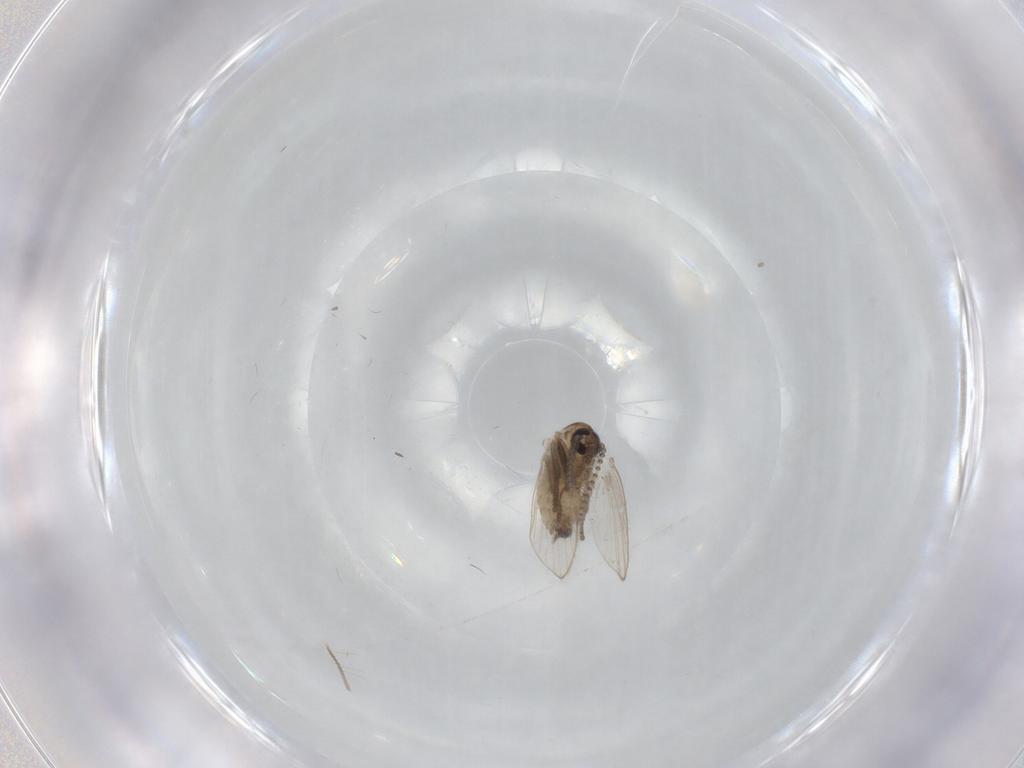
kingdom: Animalia
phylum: Arthropoda
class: Insecta
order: Diptera
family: Psychodidae
